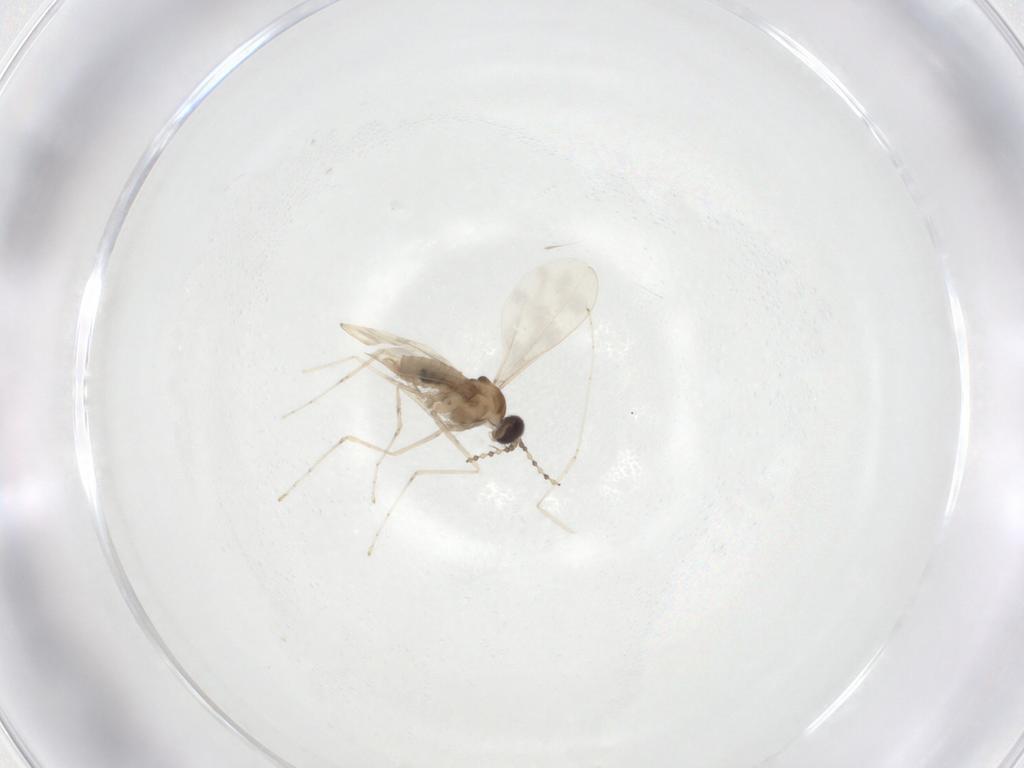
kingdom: Animalia
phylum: Arthropoda
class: Insecta
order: Diptera
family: Cecidomyiidae
